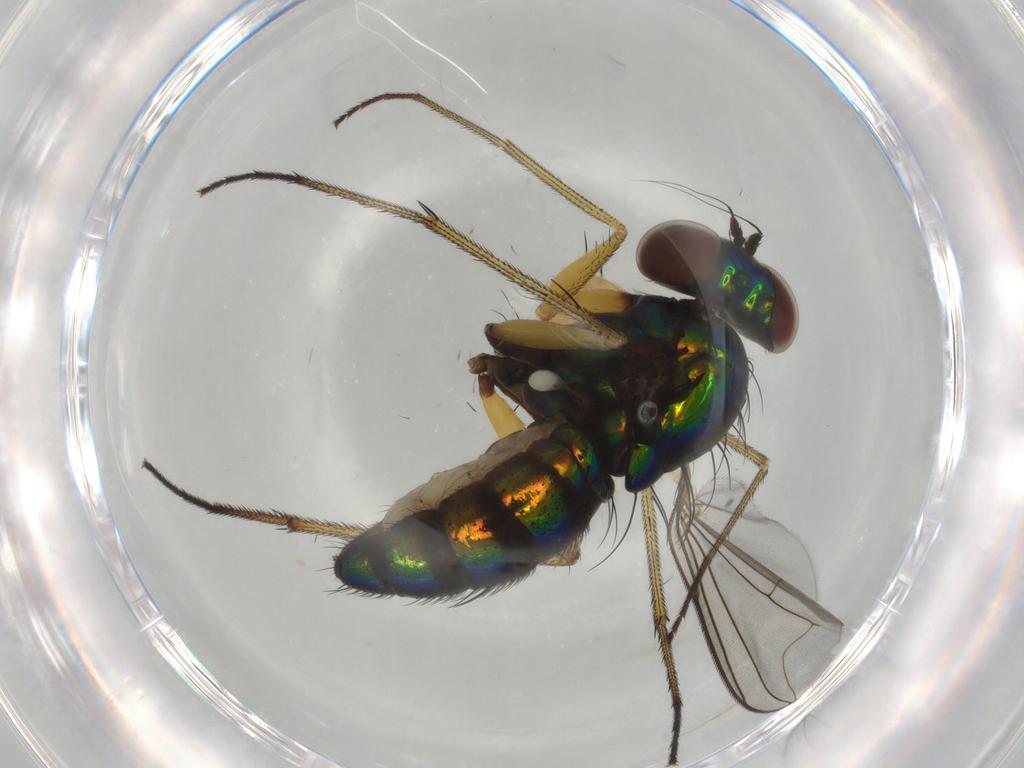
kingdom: Animalia
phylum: Arthropoda
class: Insecta
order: Diptera
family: Dolichopodidae
